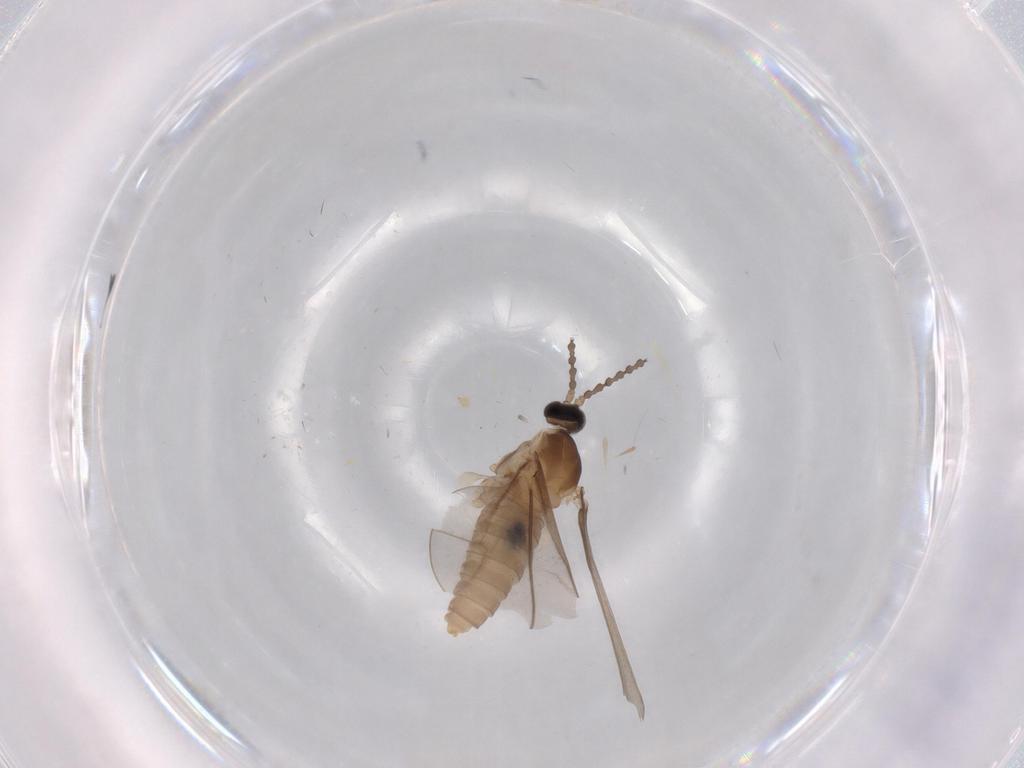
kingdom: Animalia
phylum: Arthropoda
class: Insecta
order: Diptera
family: Cecidomyiidae
